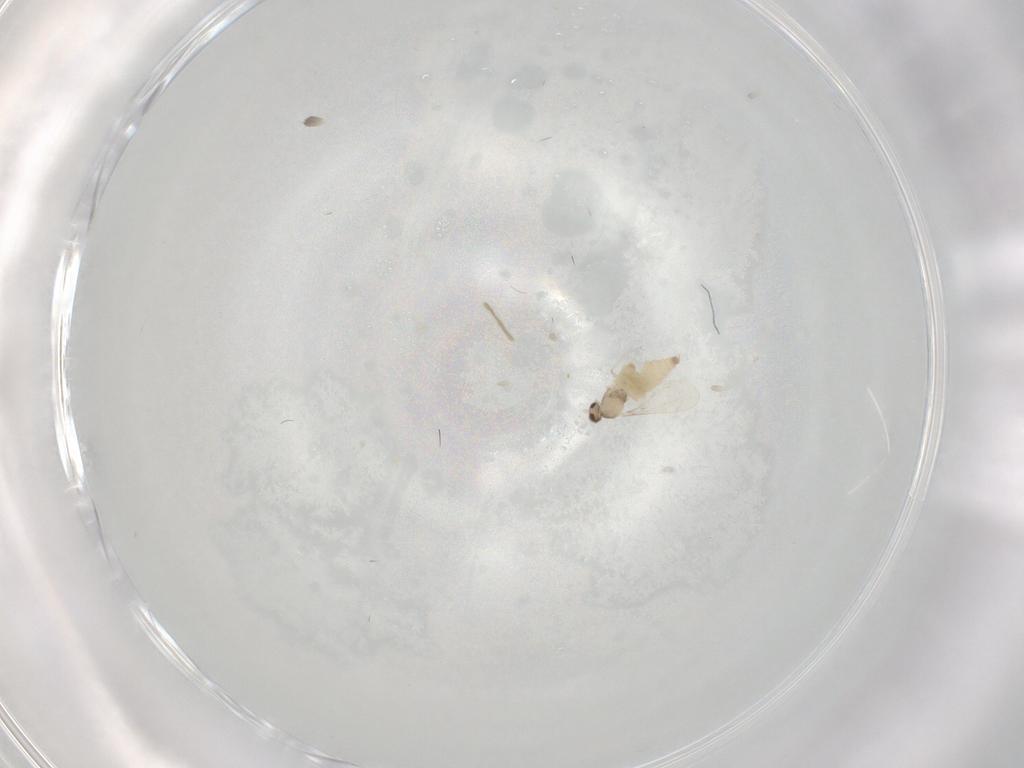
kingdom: Animalia
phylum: Arthropoda
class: Insecta
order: Diptera
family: Cecidomyiidae
